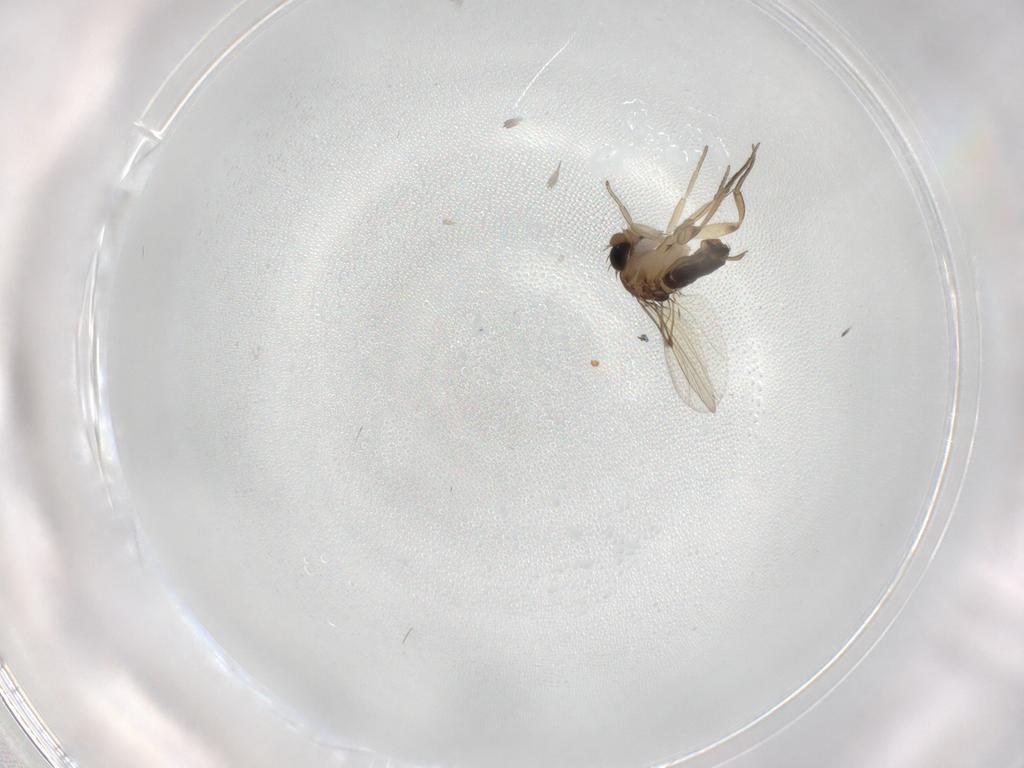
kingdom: Animalia
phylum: Arthropoda
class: Insecta
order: Diptera
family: Phoridae
